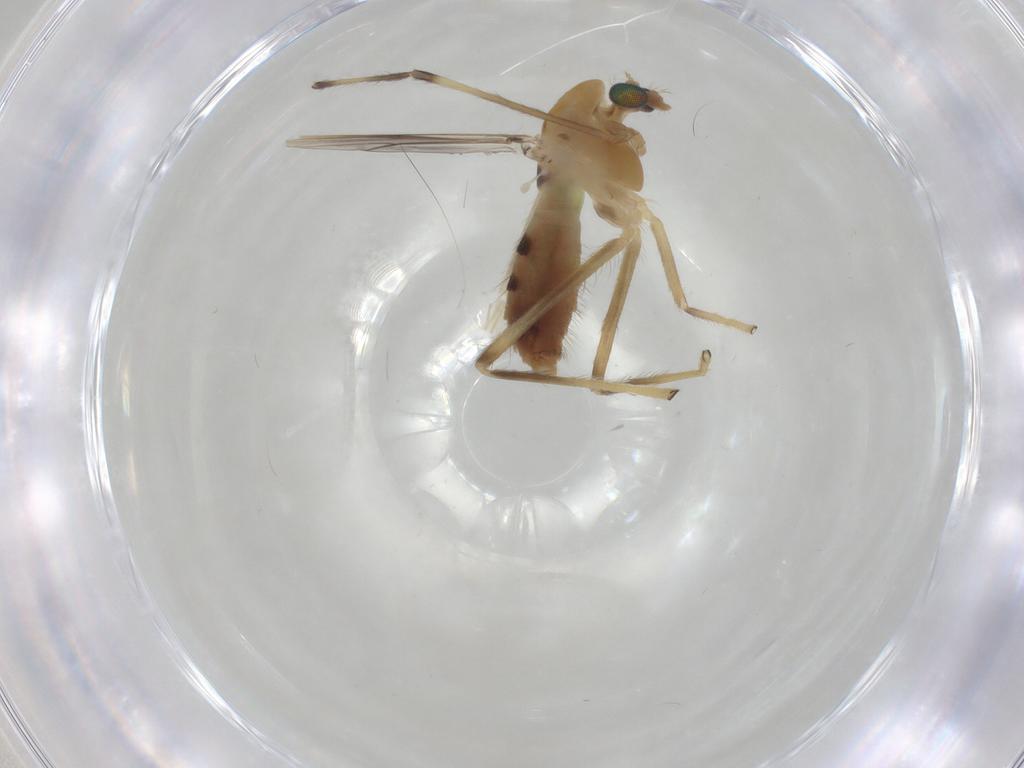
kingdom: Animalia
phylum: Arthropoda
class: Insecta
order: Diptera
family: Chironomidae
